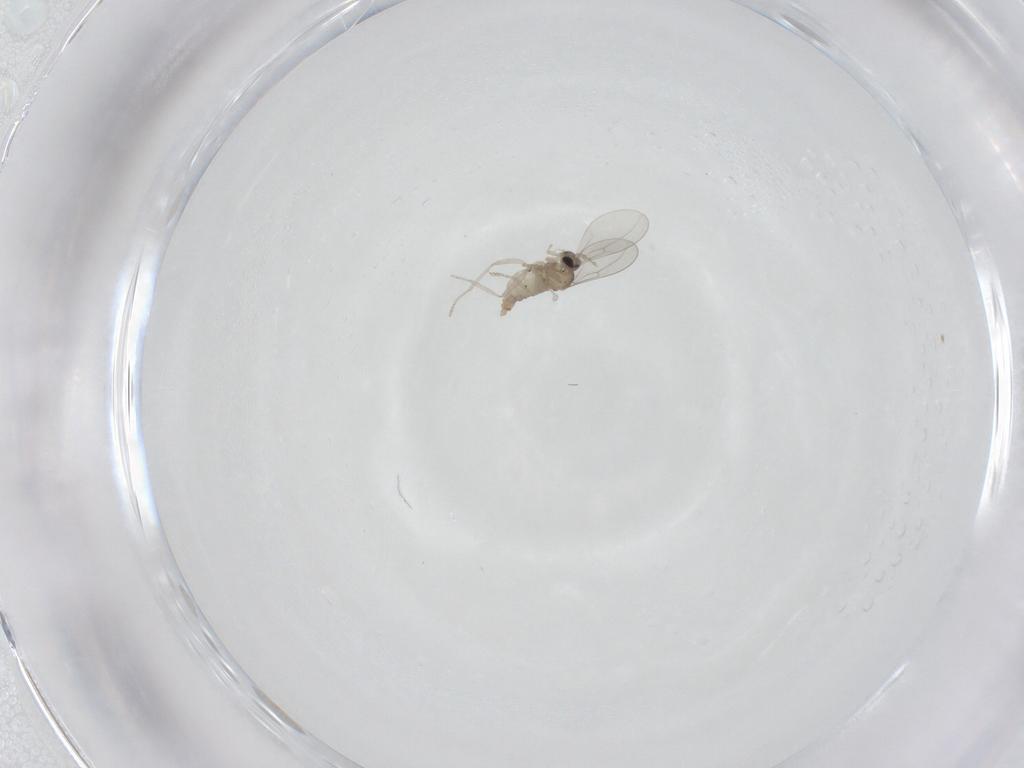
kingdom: Animalia
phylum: Arthropoda
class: Insecta
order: Diptera
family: Cecidomyiidae
